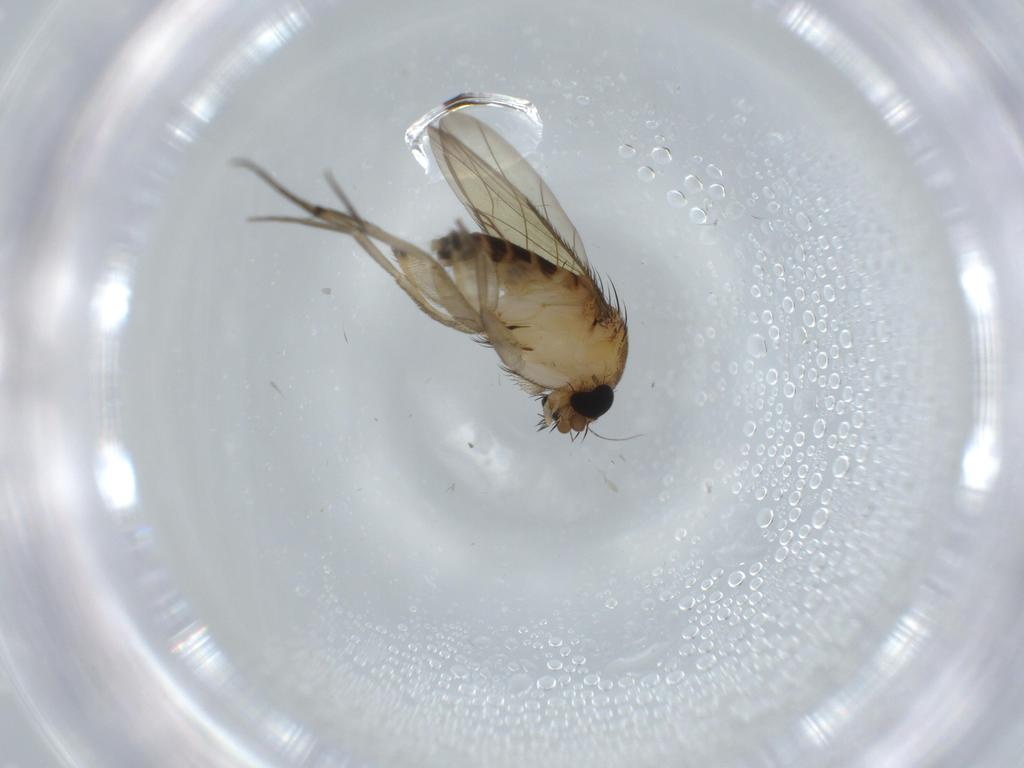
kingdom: Animalia
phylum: Arthropoda
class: Insecta
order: Diptera
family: Phoridae
